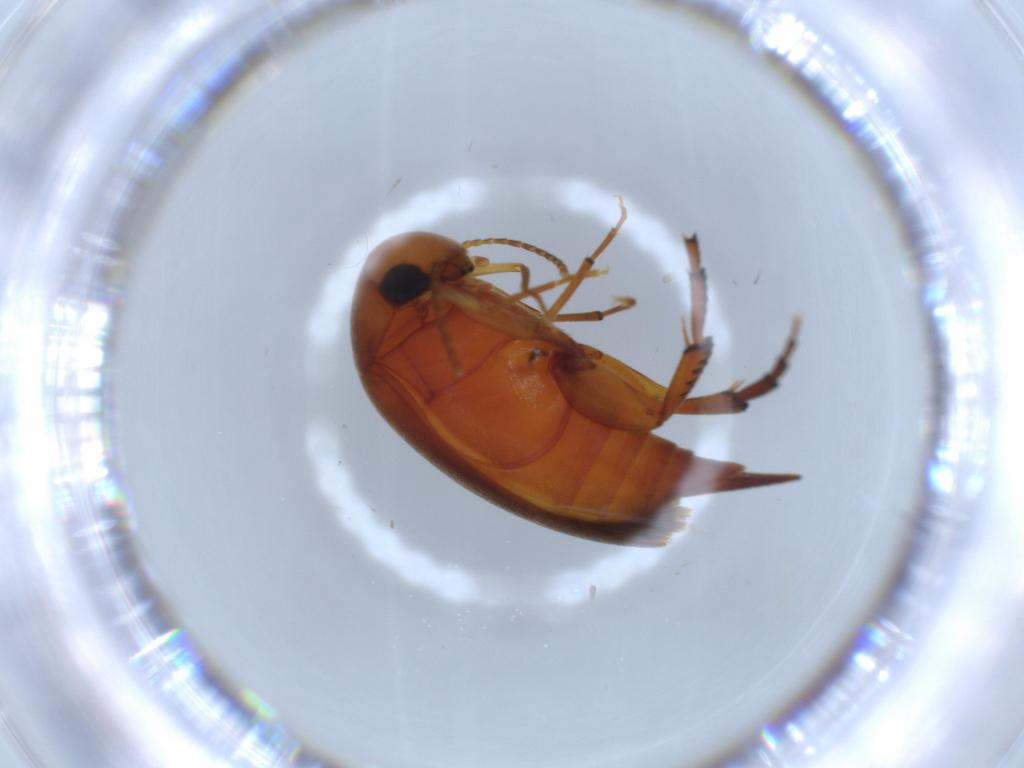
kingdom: Animalia
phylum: Arthropoda
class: Insecta
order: Coleoptera
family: Mordellidae
